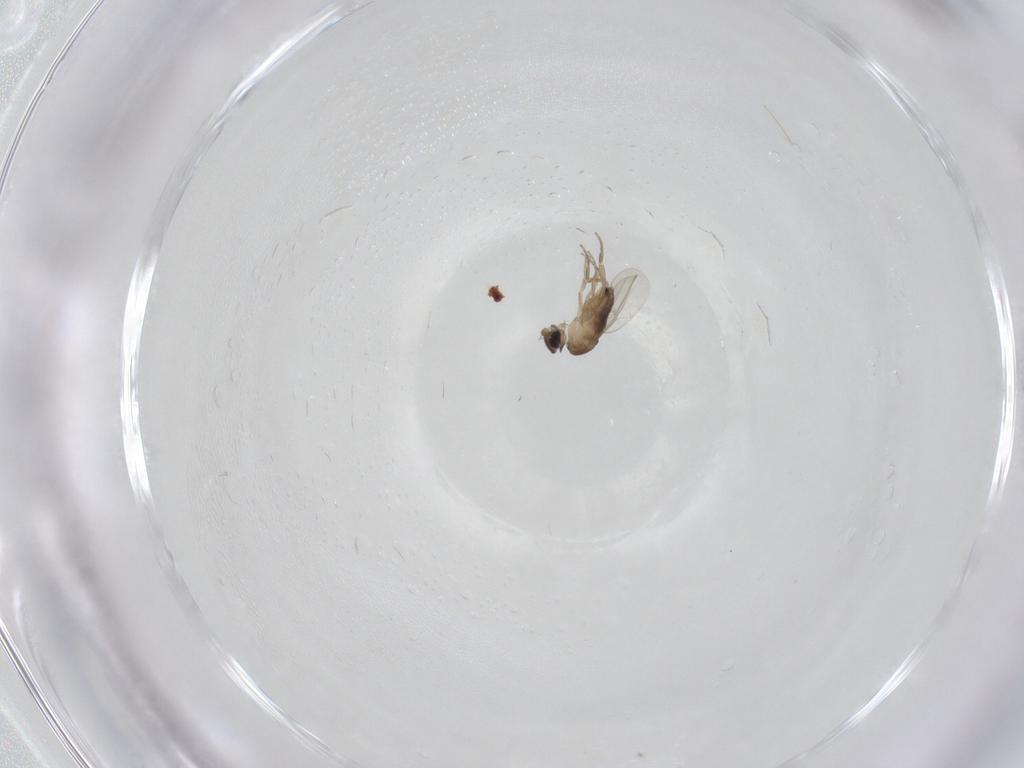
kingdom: Animalia
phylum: Arthropoda
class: Insecta
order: Diptera
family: Phoridae
